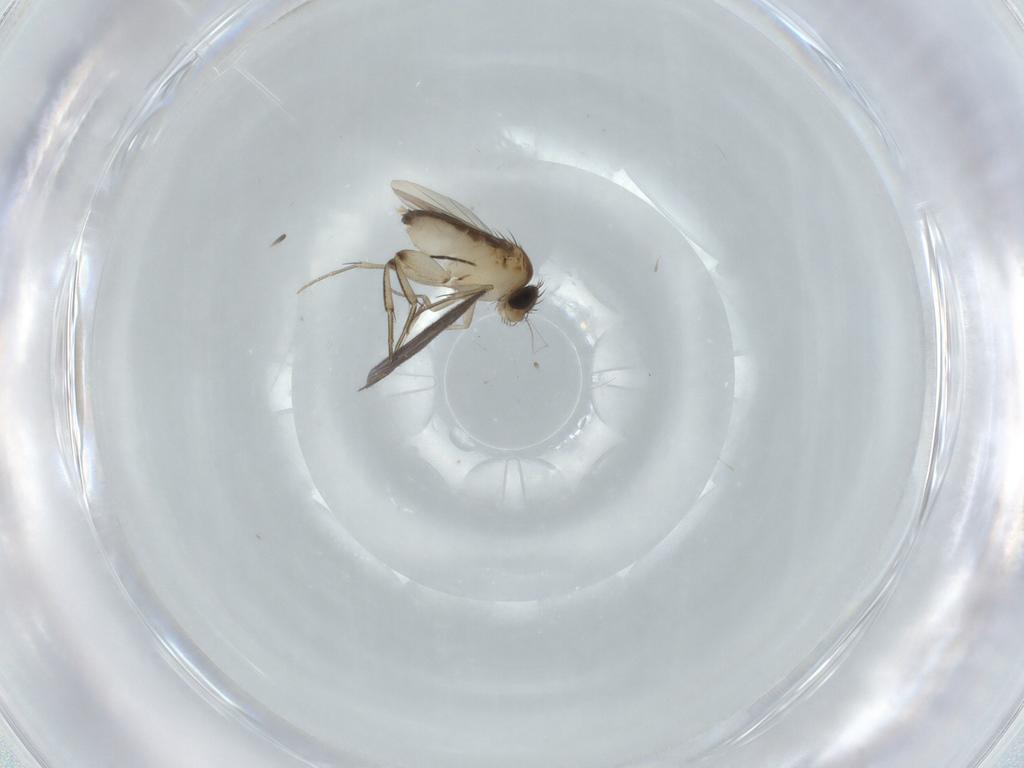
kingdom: Animalia
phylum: Arthropoda
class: Insecta
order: Diptera
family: Phoridae
